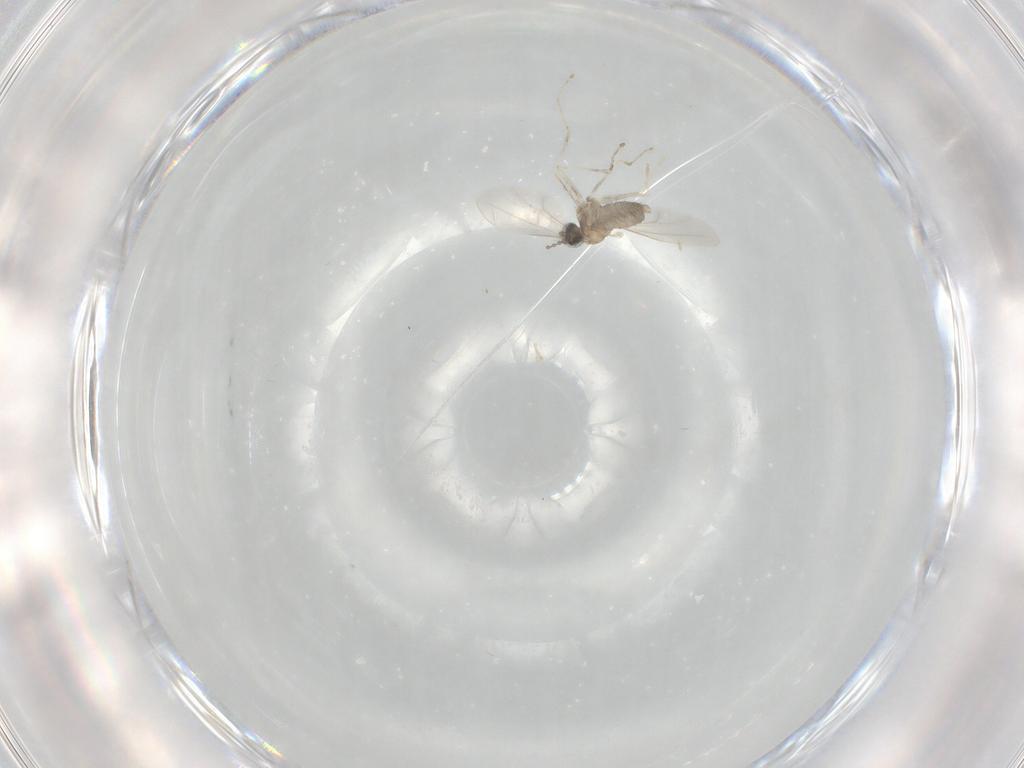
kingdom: Animalia
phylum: Arthropoda
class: Insecta
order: Diptera
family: Cecidomyiidae
